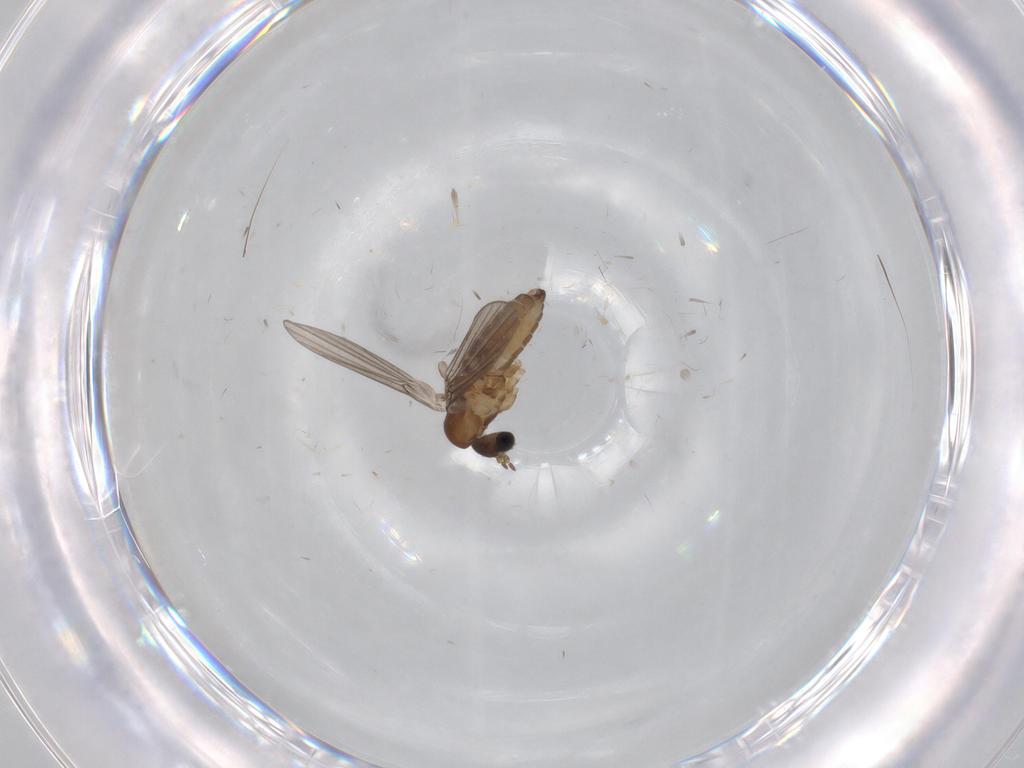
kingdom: Animalia
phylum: Arthropoda
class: Insecta
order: Diptera
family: Psychodidae
